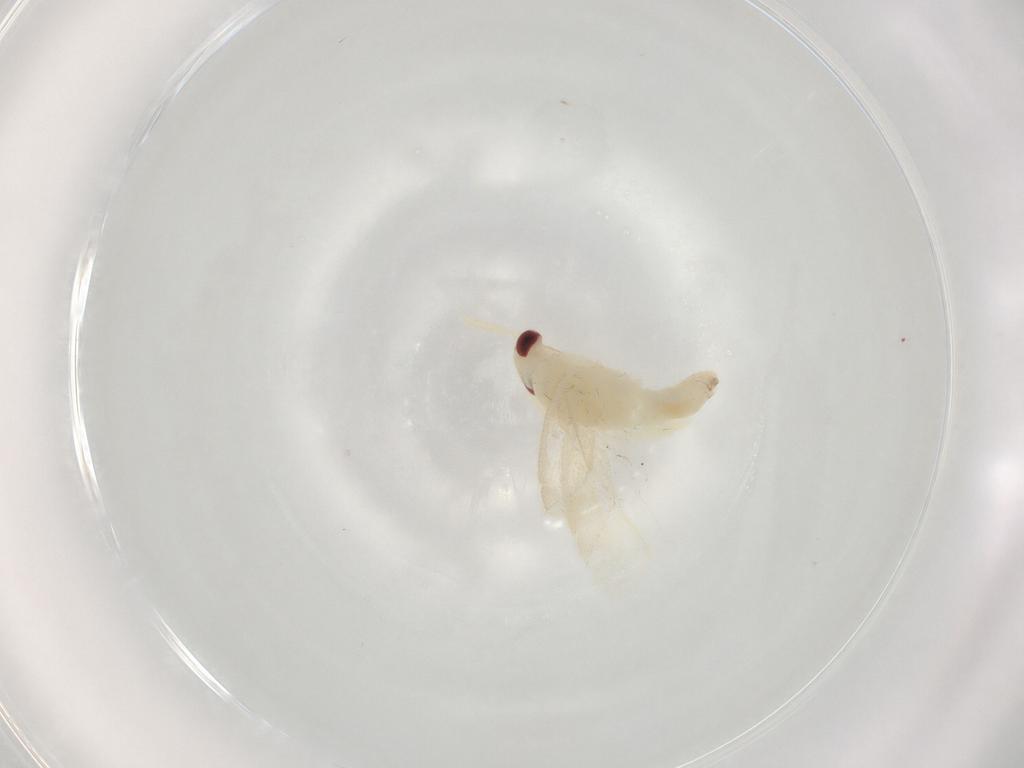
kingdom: Animalia
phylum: Arthropoda
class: Insecta
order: Hemiptera
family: Miridae
